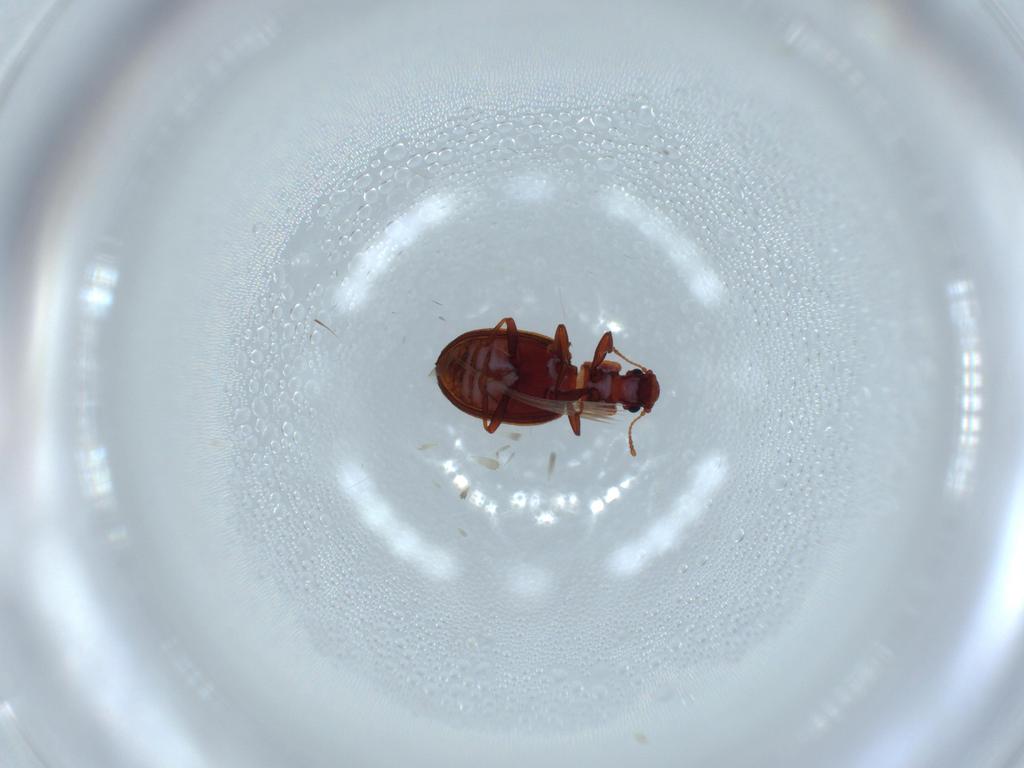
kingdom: Animalia
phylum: Arthropoda
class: Insecta
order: Coleoptera
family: Latridiidae
